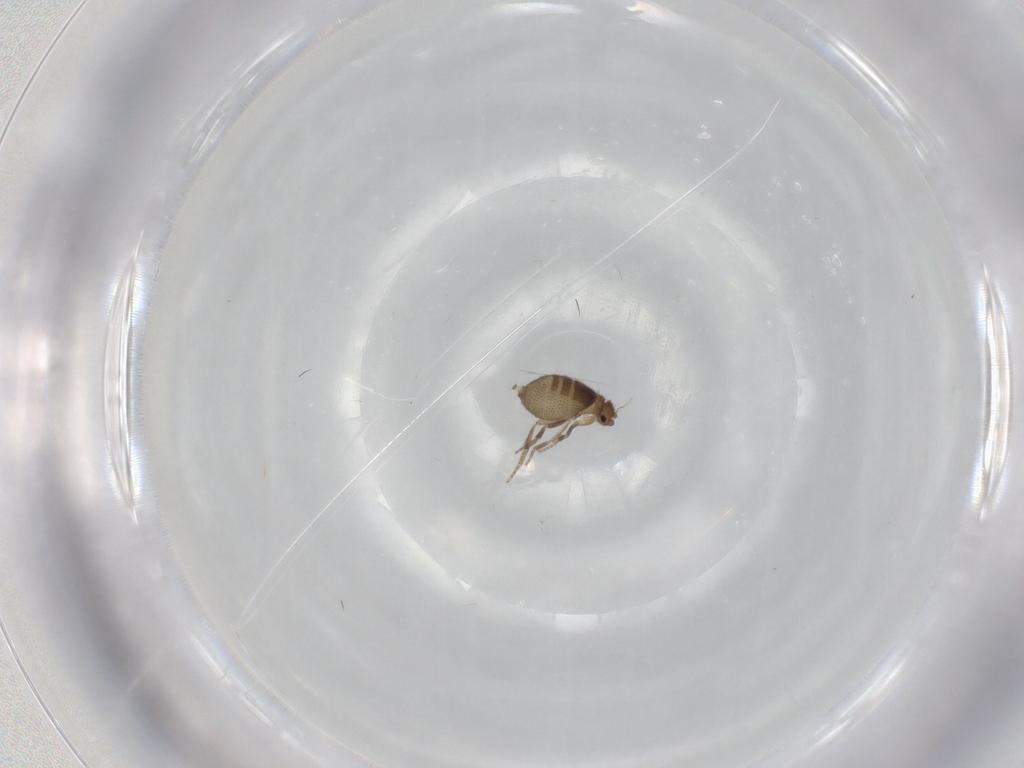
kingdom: Animalia
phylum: Arthropoda
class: Insecta
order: Diptera
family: Phoridae
